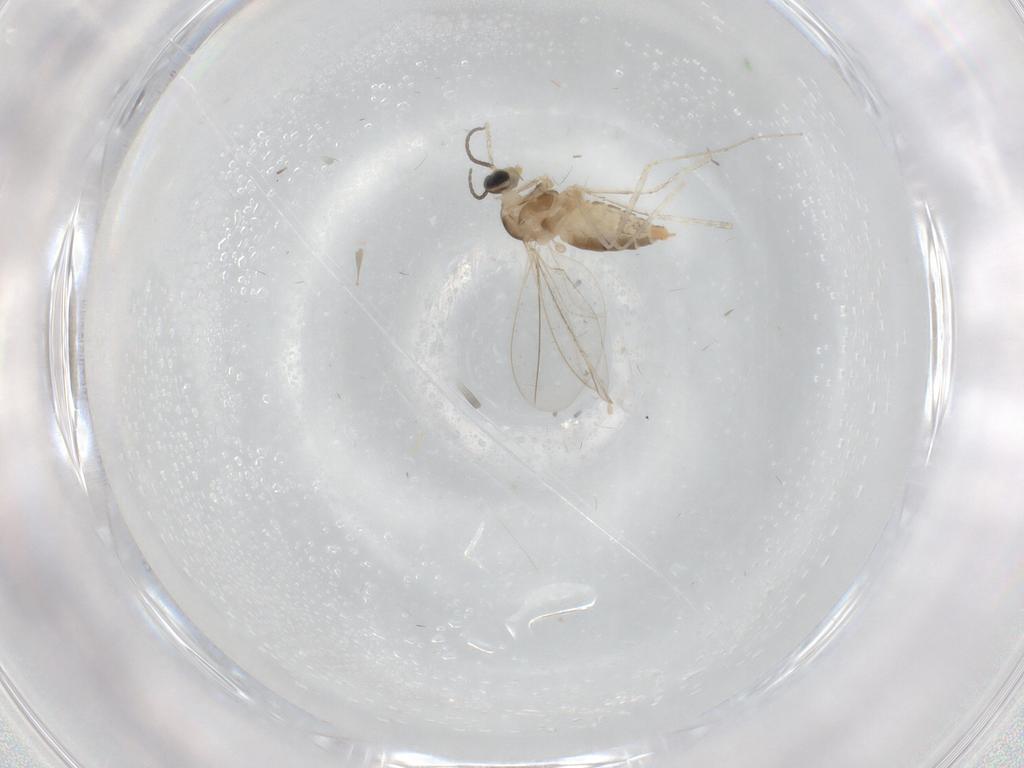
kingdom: Animalia
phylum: Arthropoda
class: Insecta
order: Diptera
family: Cecidomyiidae
